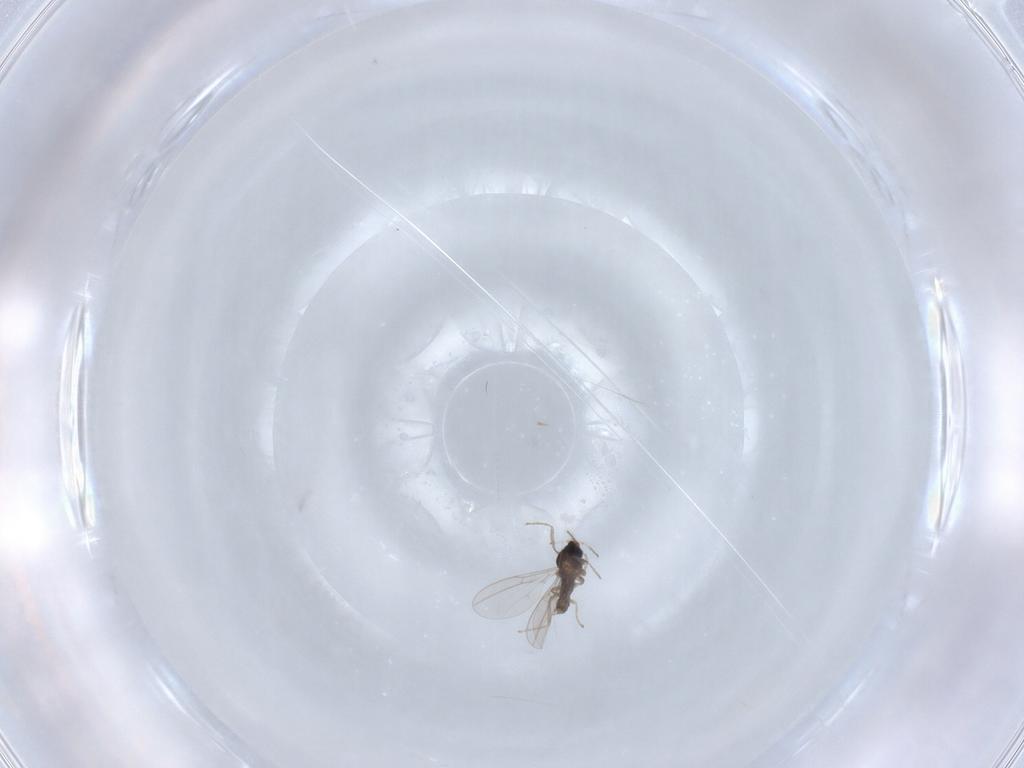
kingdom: Animalia
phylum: Arthropoda
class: Insecta
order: Diptera
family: Cecidomyiidae
